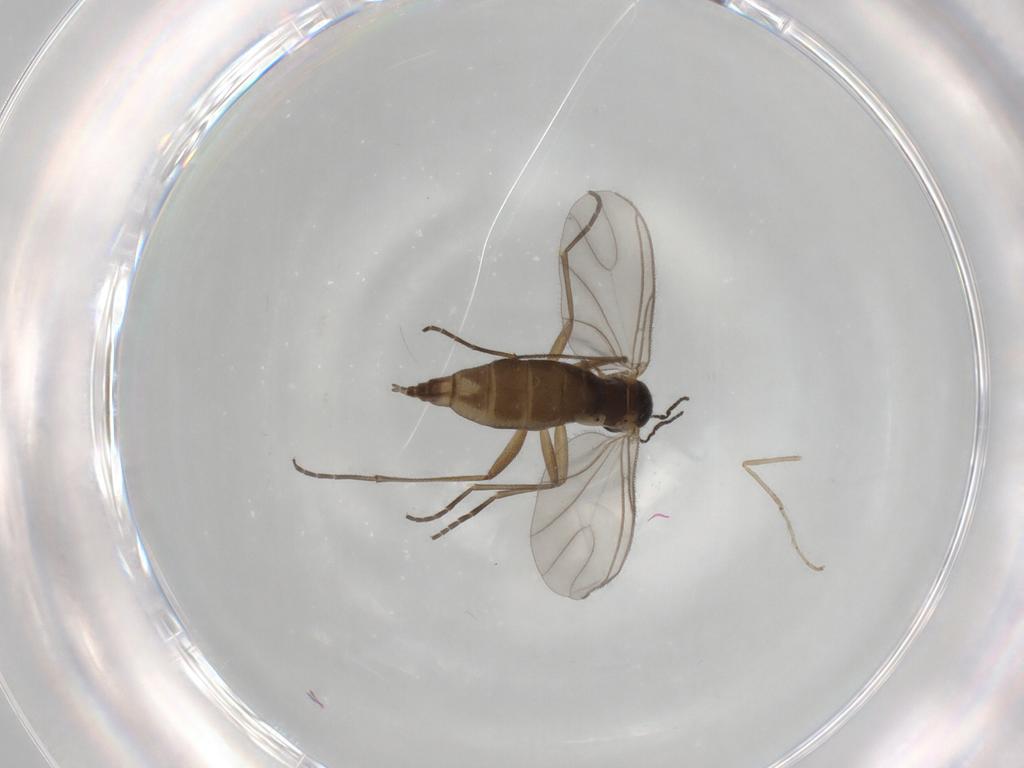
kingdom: Animalia
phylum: Arthropoda
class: Insecta
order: Diptera
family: Cecidomyiidae
